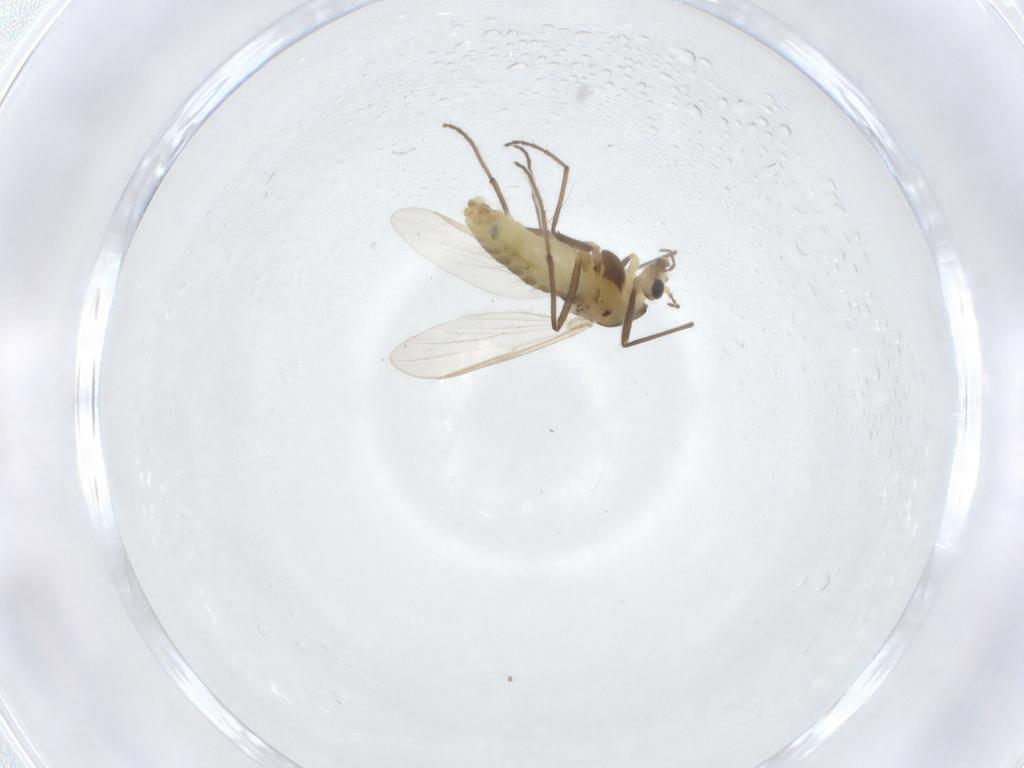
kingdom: Animalia
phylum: Arthropoda
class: Insecta
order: Diptera
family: Chironomidae
